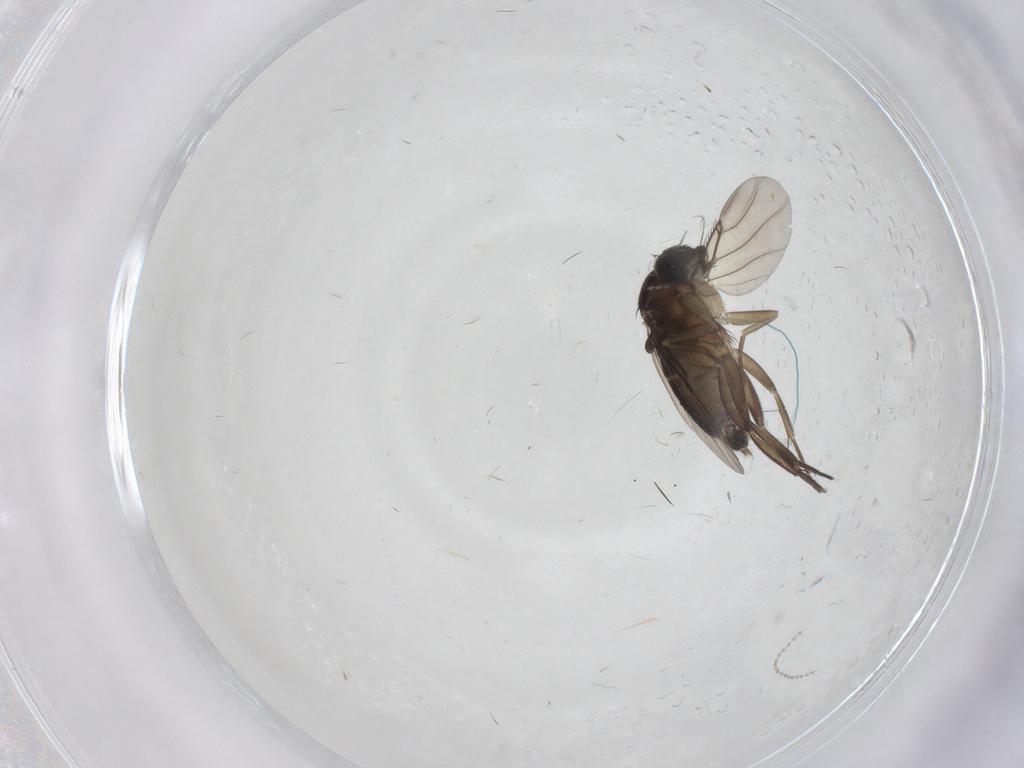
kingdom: Animalia
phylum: Arthropoda
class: Insecta
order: Diptera
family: Phoridae
